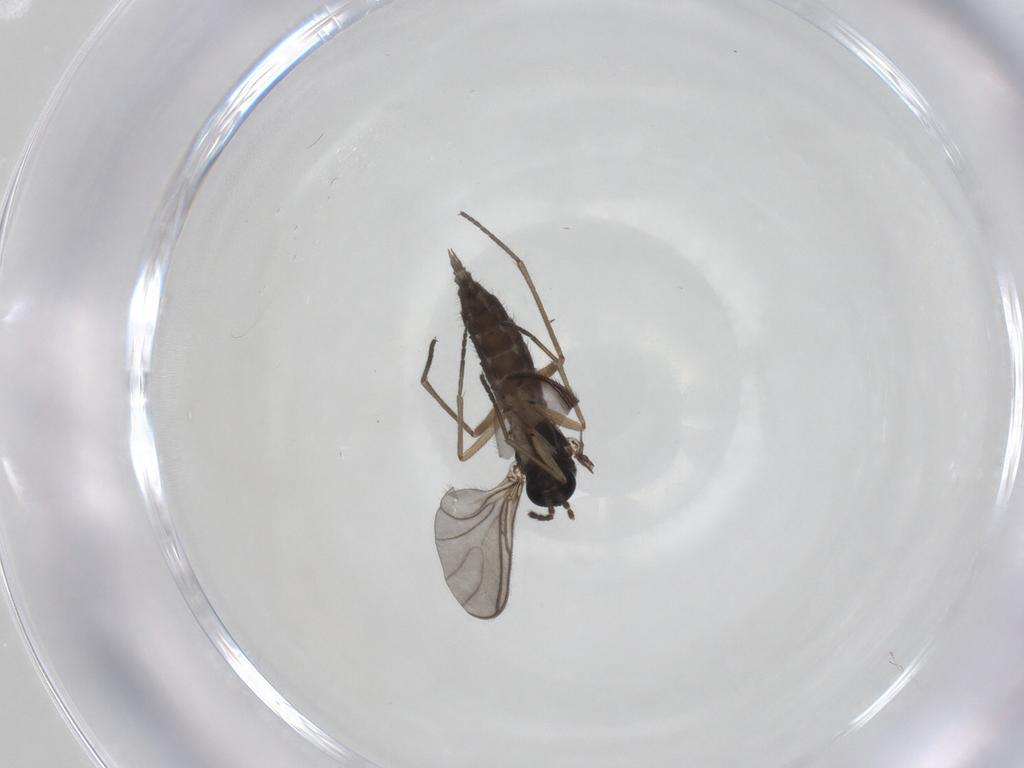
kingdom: Animalia
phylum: Arthropoda
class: Insecta
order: Diptera
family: Sciaridae
